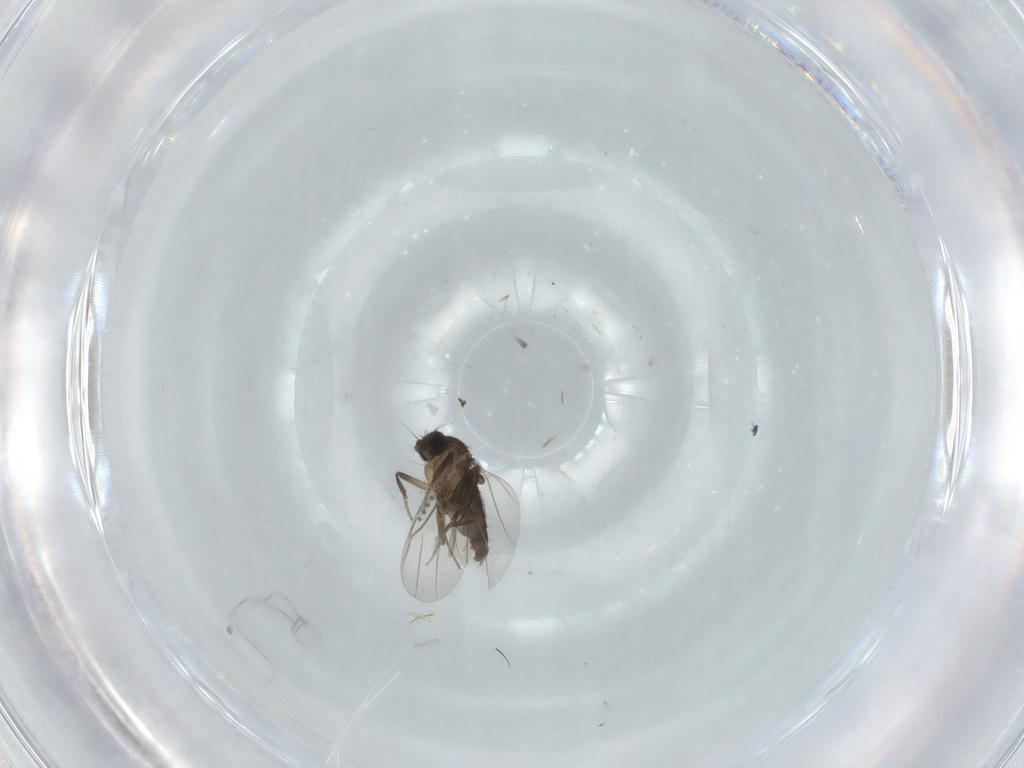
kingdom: Animalia
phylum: Arthropoda
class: Insecta
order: Diptera
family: Phoridae
